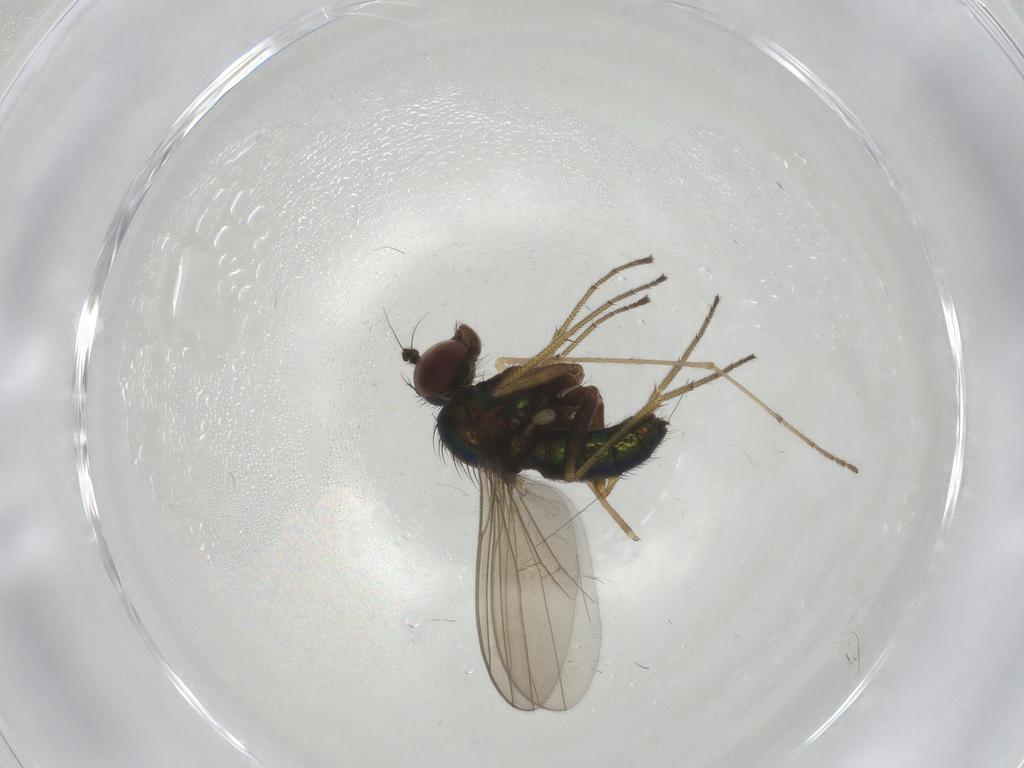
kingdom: Animalia
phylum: Arthropoda
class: Insecta
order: Diptera
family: Dolichopodidae
